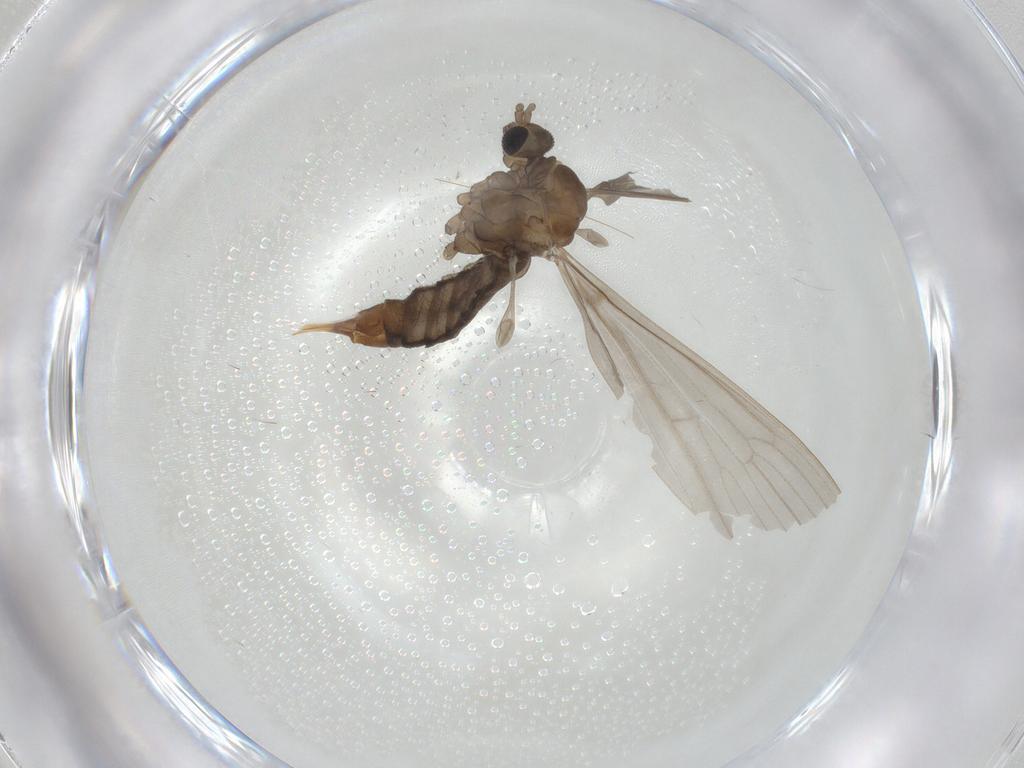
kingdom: Animalia
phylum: Arthropoda
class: Insecta
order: Diptera
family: Limoniidae
